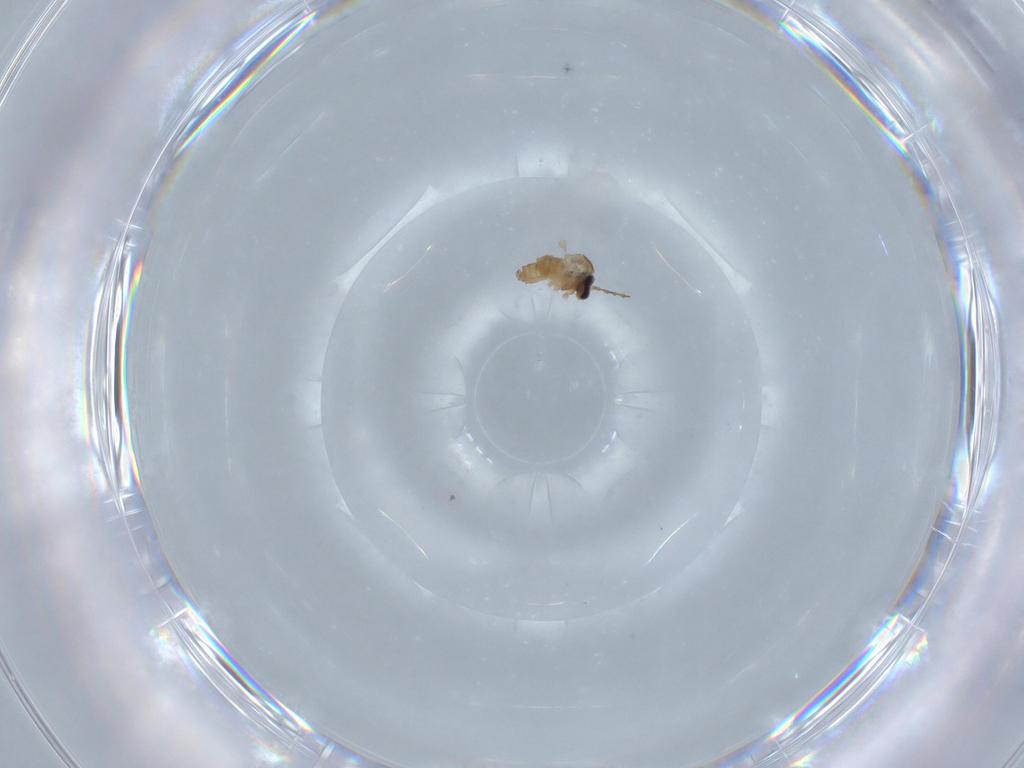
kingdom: Animalia
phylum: Arthropoda
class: Insecta
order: Diptera
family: Cecidomyiidae
